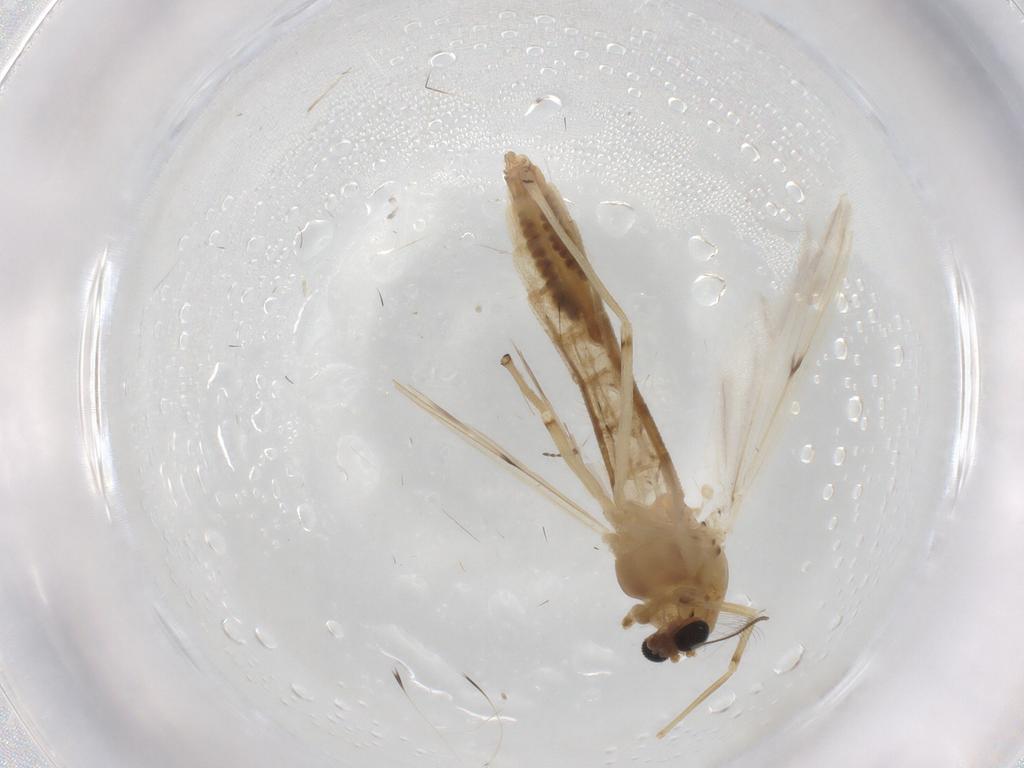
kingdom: Animalia
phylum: Arthropoda
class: Insecta
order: Diptera
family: Chironomidae
